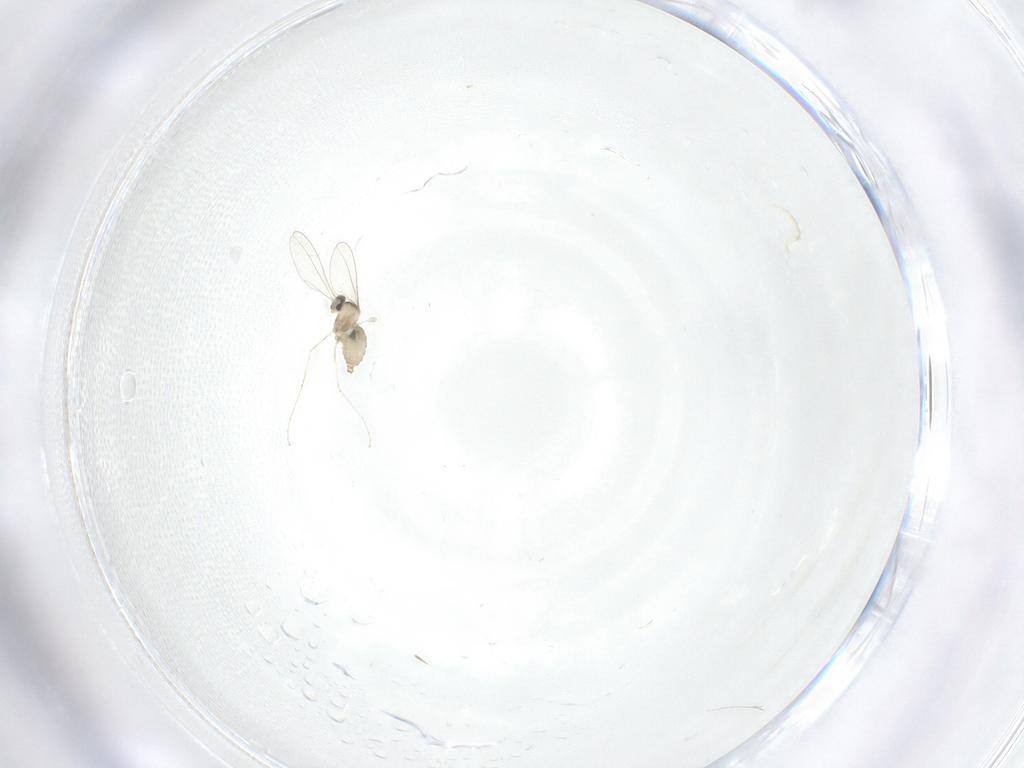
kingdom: Animalia
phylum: Arthropoda
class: Insecta
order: Diptera
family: Cecidomyiidae
